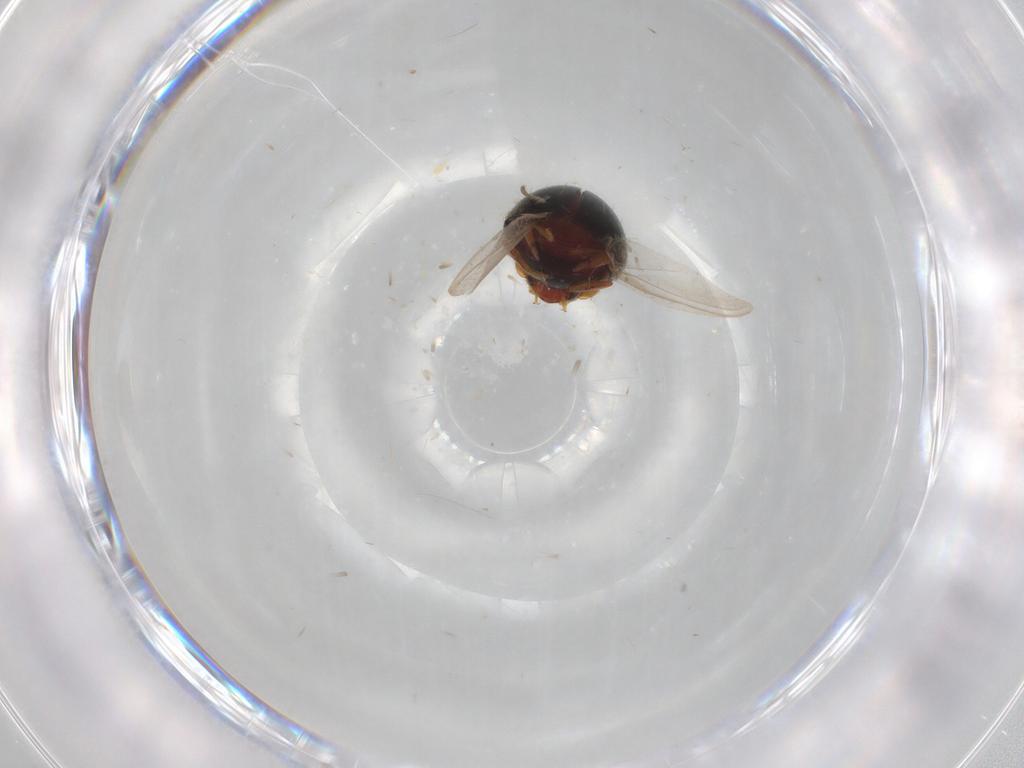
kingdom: Animalia
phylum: Arthropoda
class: Insecta
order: Coleoptera
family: Coccinellidae
